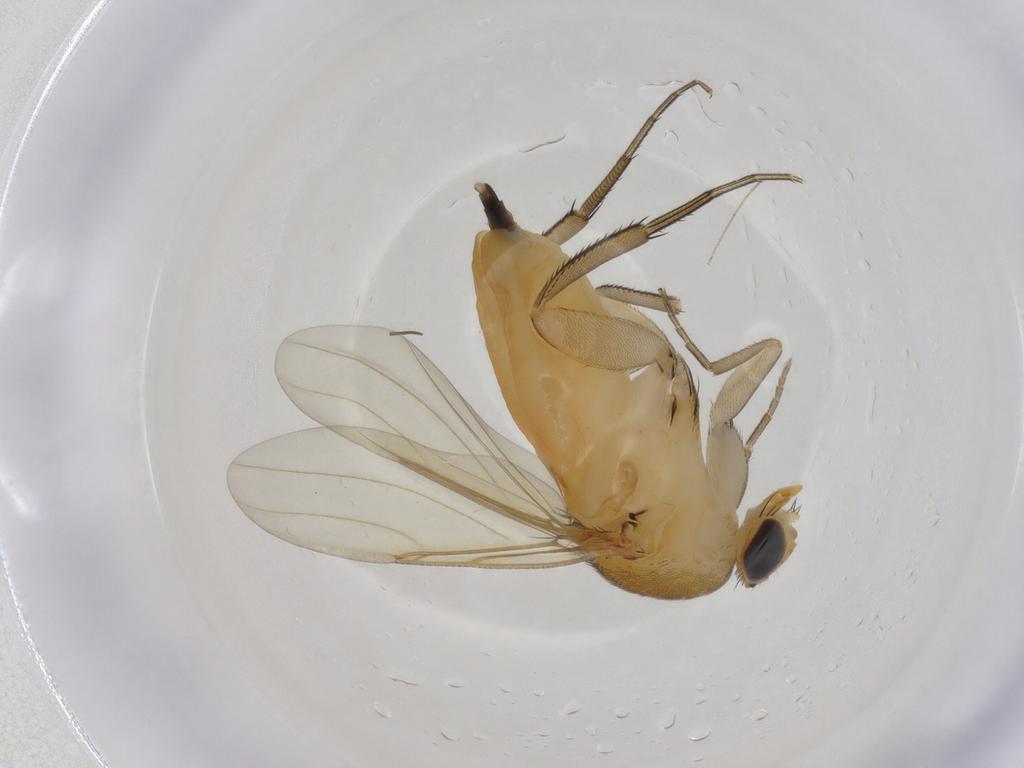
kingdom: Animalia
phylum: Arthropoda
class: Insecta
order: Diptera
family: Phoridae
